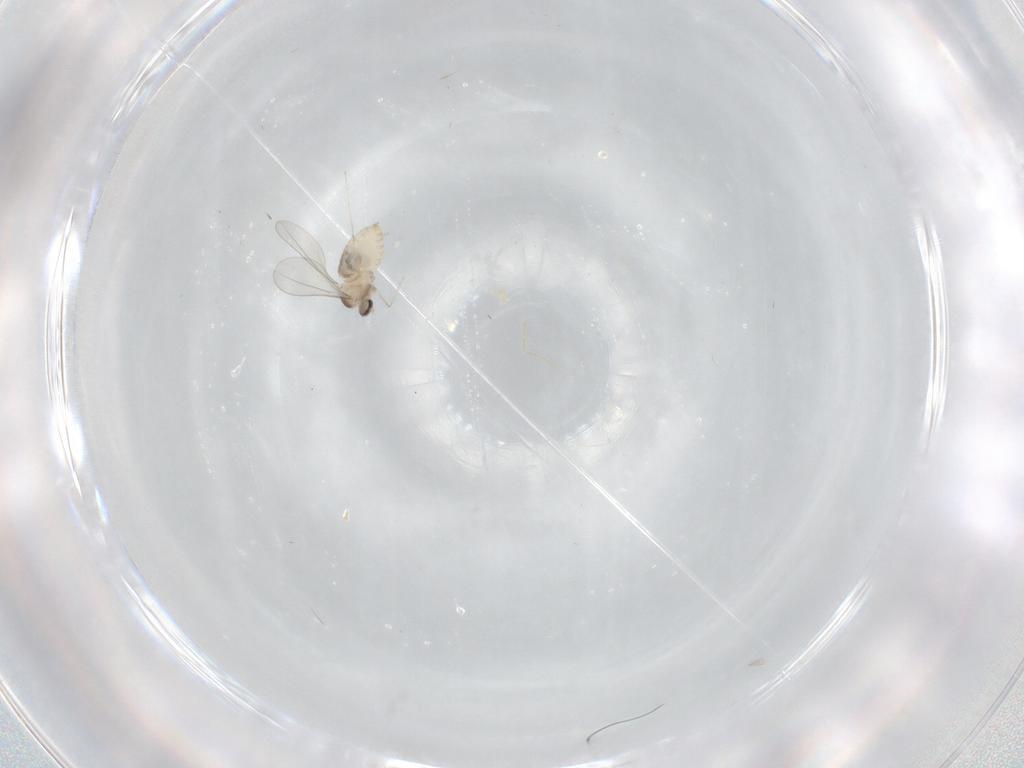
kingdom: Animalia
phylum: Arthropoda
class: Insecta
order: Diptera
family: Cecidomyiidae
